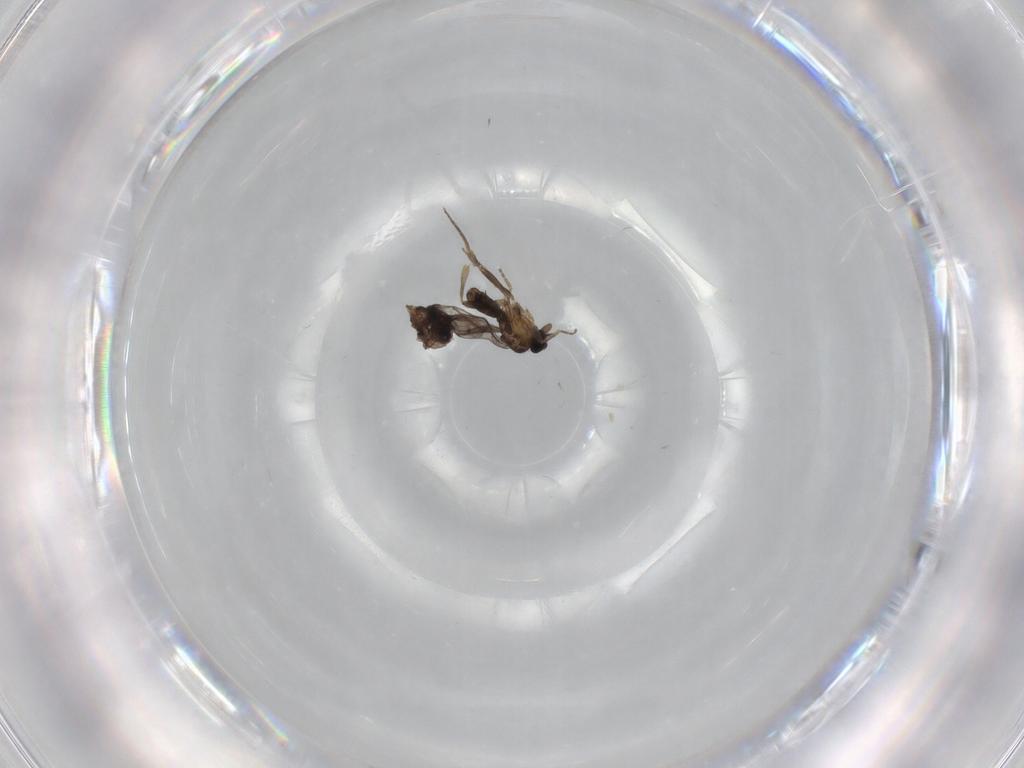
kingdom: Animalia
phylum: Arthropoda
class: Insecta
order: Diptera
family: Cecidomyiidae
